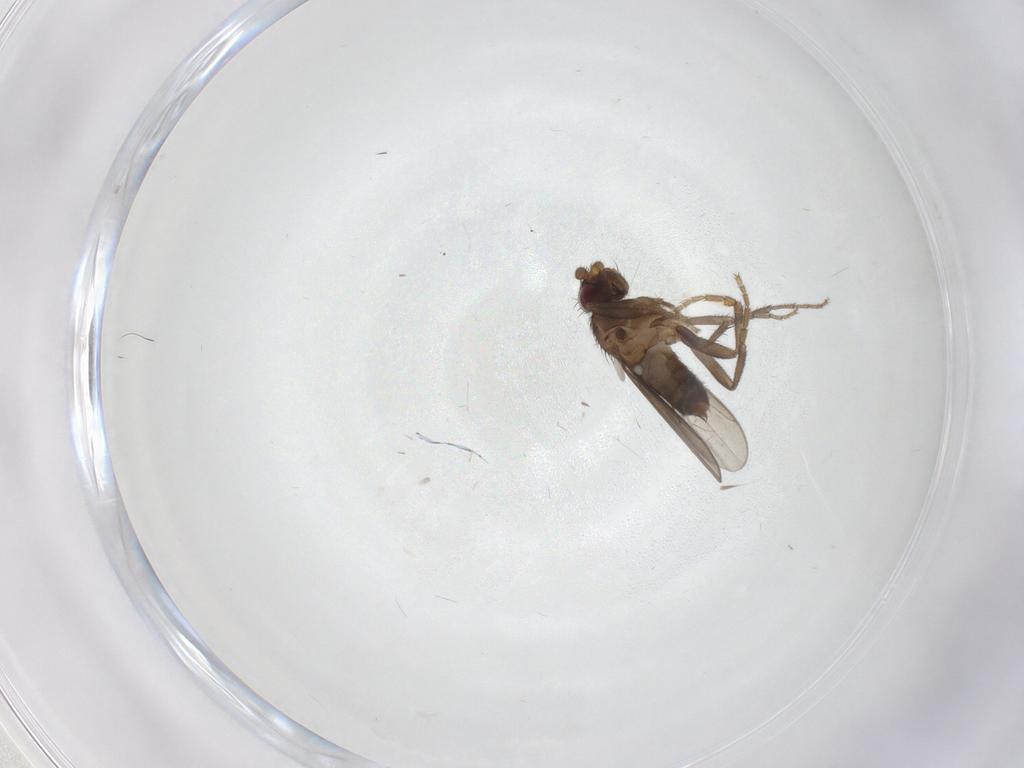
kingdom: Animalia
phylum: Arthropoda
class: Insecta
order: Diptera
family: Sphaeroceridae
